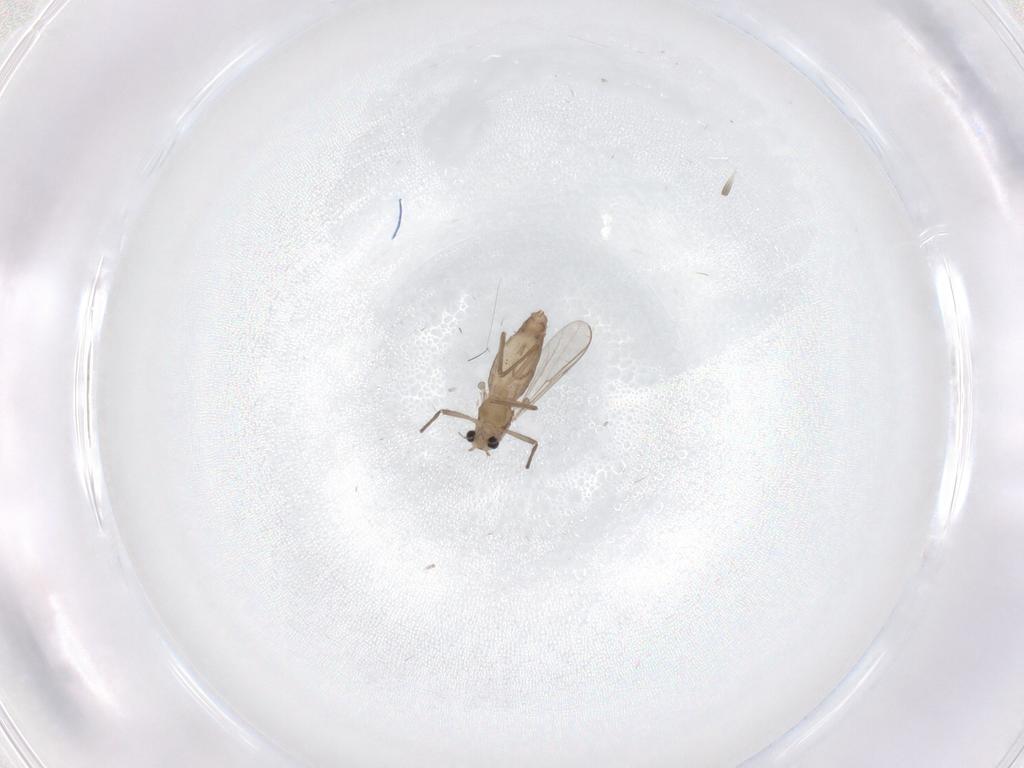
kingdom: Animalia
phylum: Arthropoda
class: Insecta
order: Diptera
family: Chironomidae
